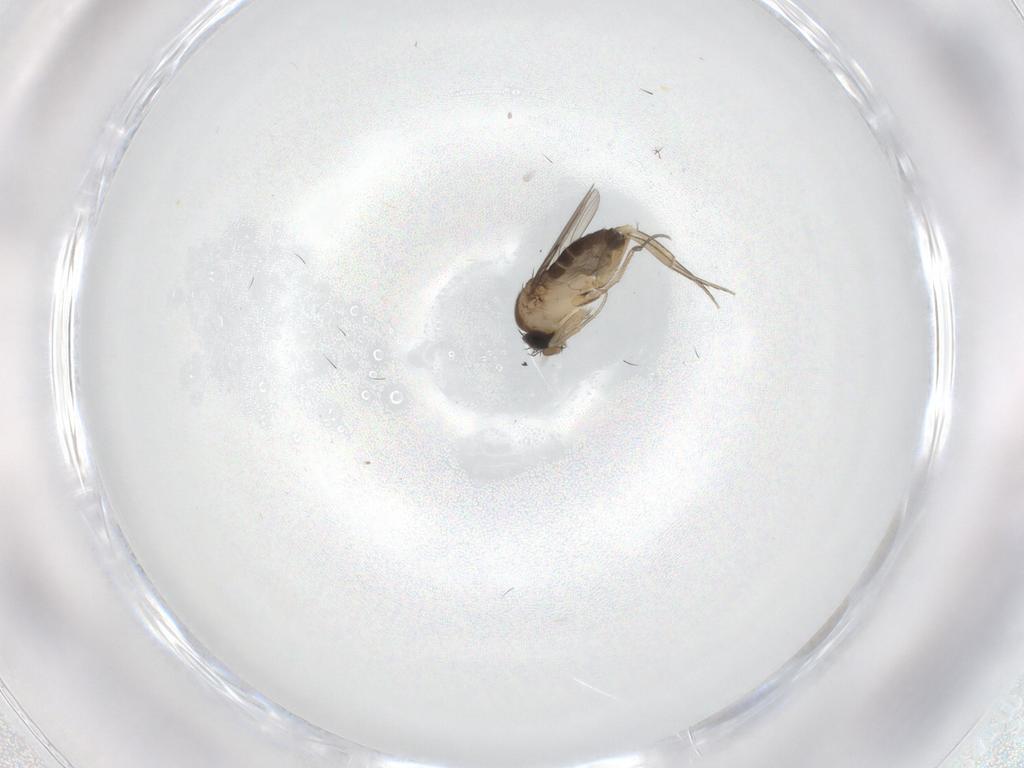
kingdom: Animalia
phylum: Arthropoda
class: Insecta
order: Diptera
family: Phoridae
